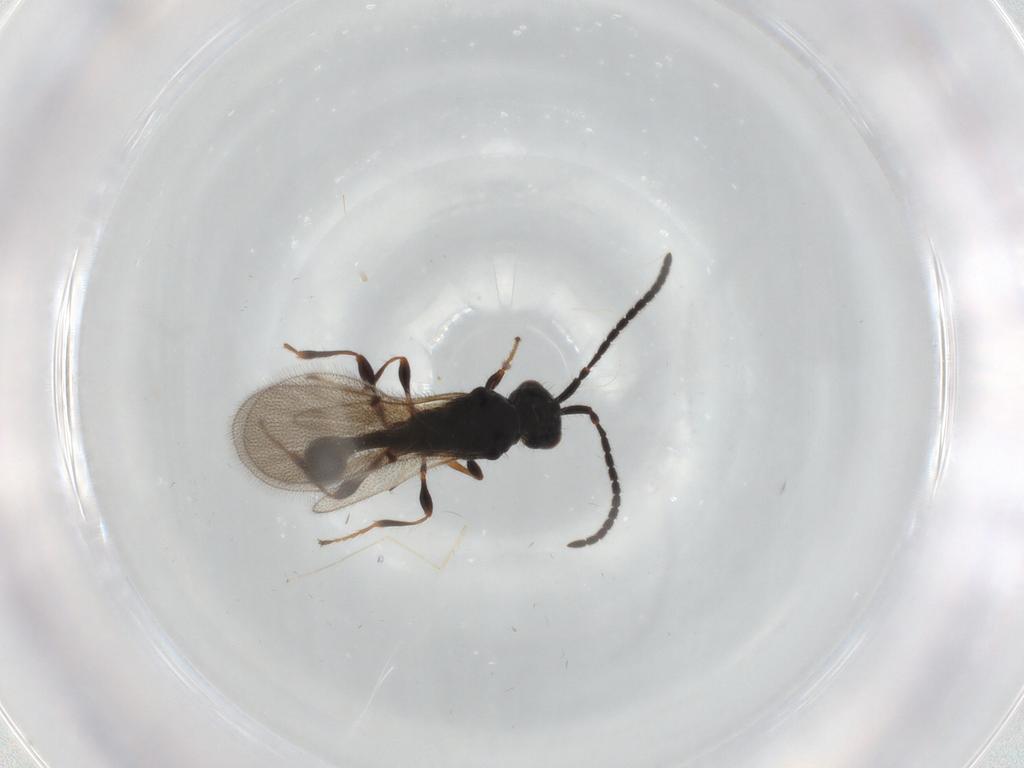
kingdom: Animalia
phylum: Arthropoda
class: Insecta
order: Hymenoptera
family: Diapriidae
